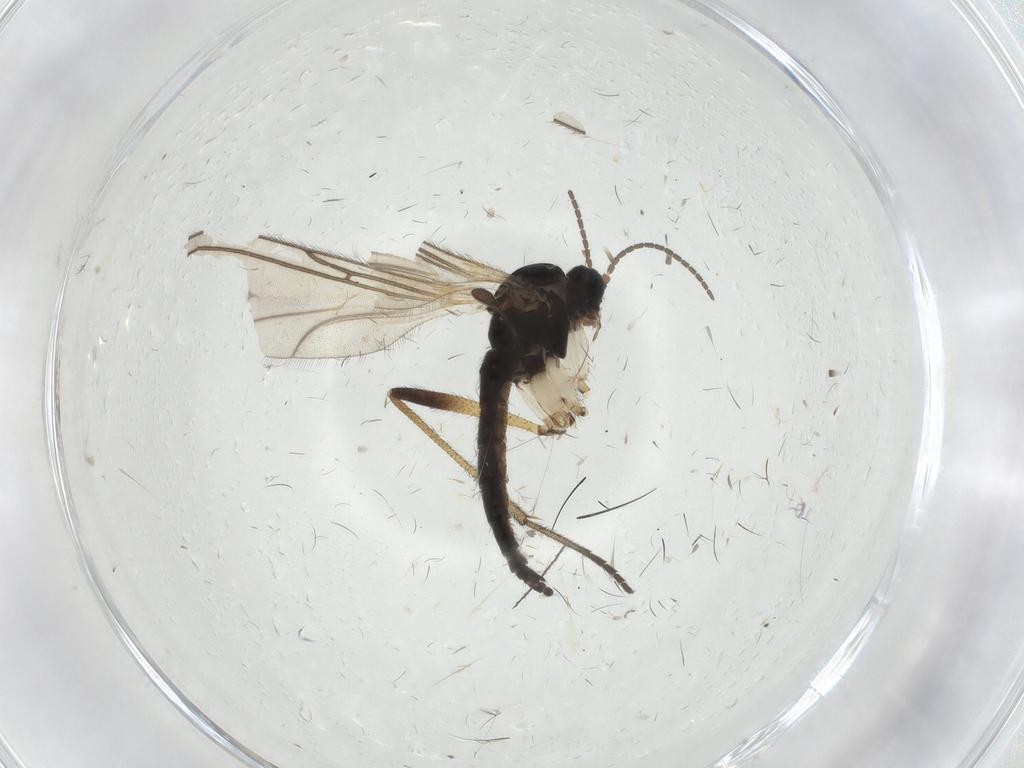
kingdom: Animalia
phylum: Arthropoda
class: Insecta
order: Diptera
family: Sciaridae
